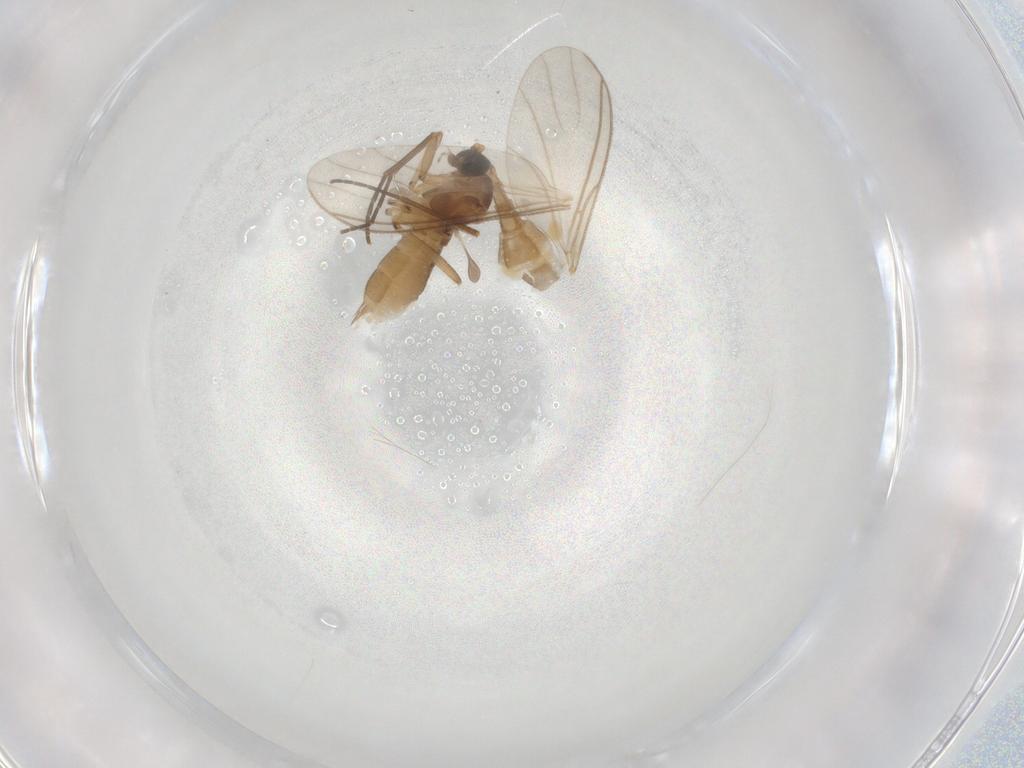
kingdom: Animalia
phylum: Arthropoda
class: Insecta
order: Diptera
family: Sciaridae
